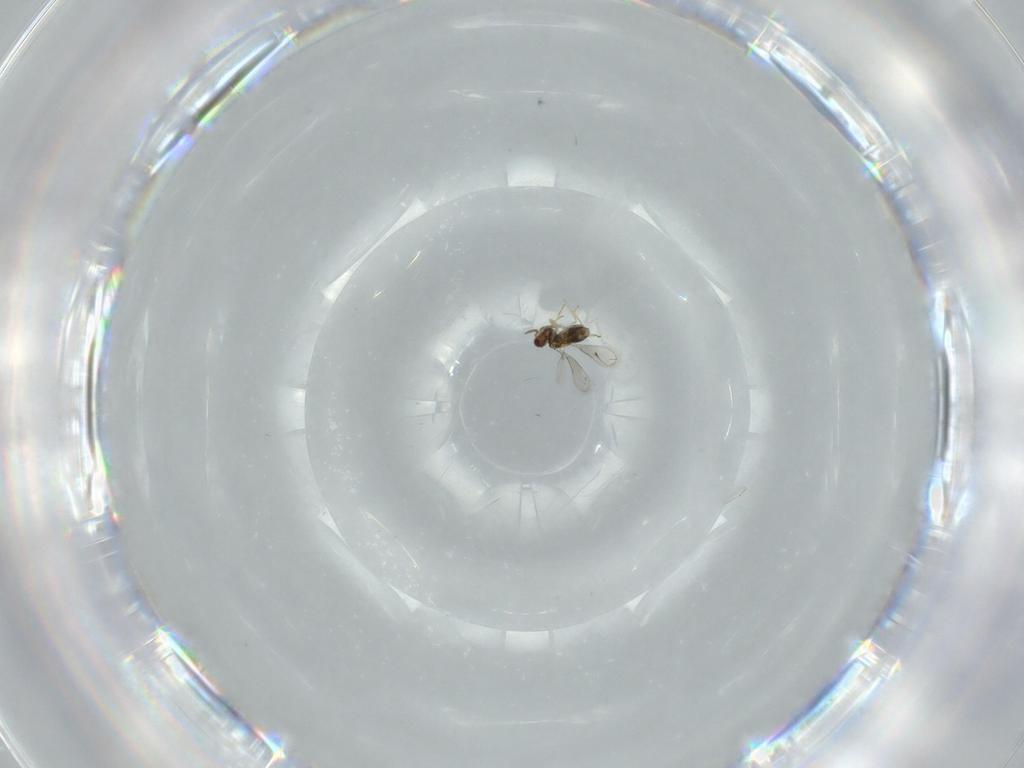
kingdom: Animalia
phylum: Arthropoda
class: Insecta
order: Hymenoptera
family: Aphelinidae
